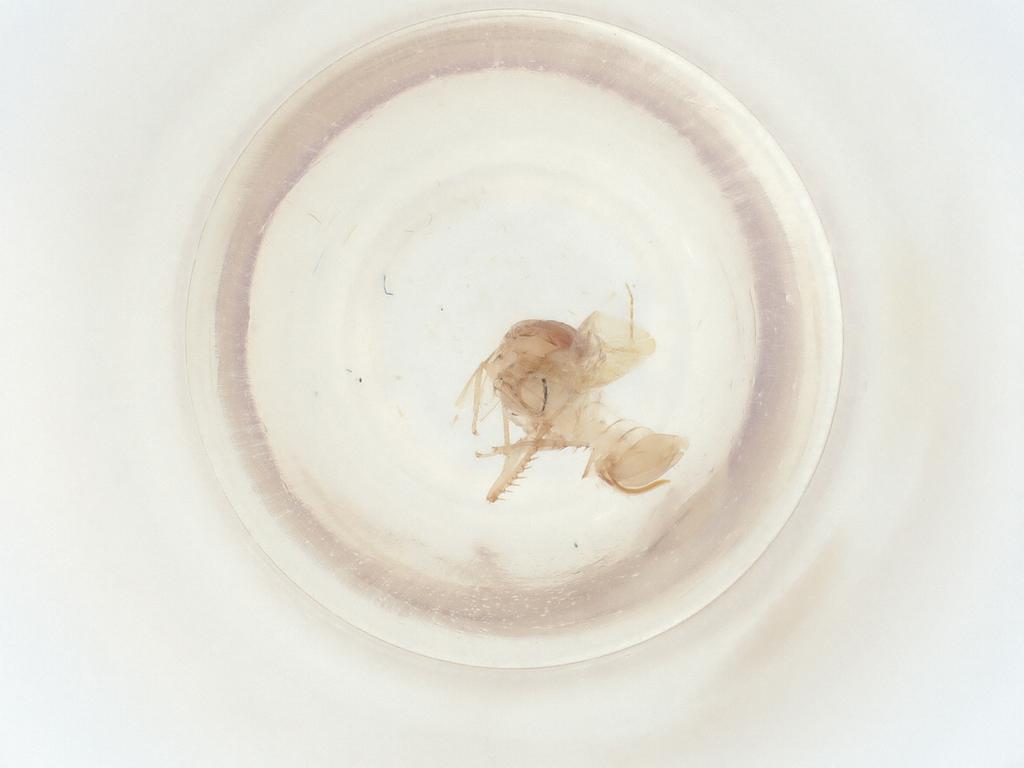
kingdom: Animalia
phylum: Arthropoda
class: Insecta
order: Hemiptera
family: Cicadellidae
